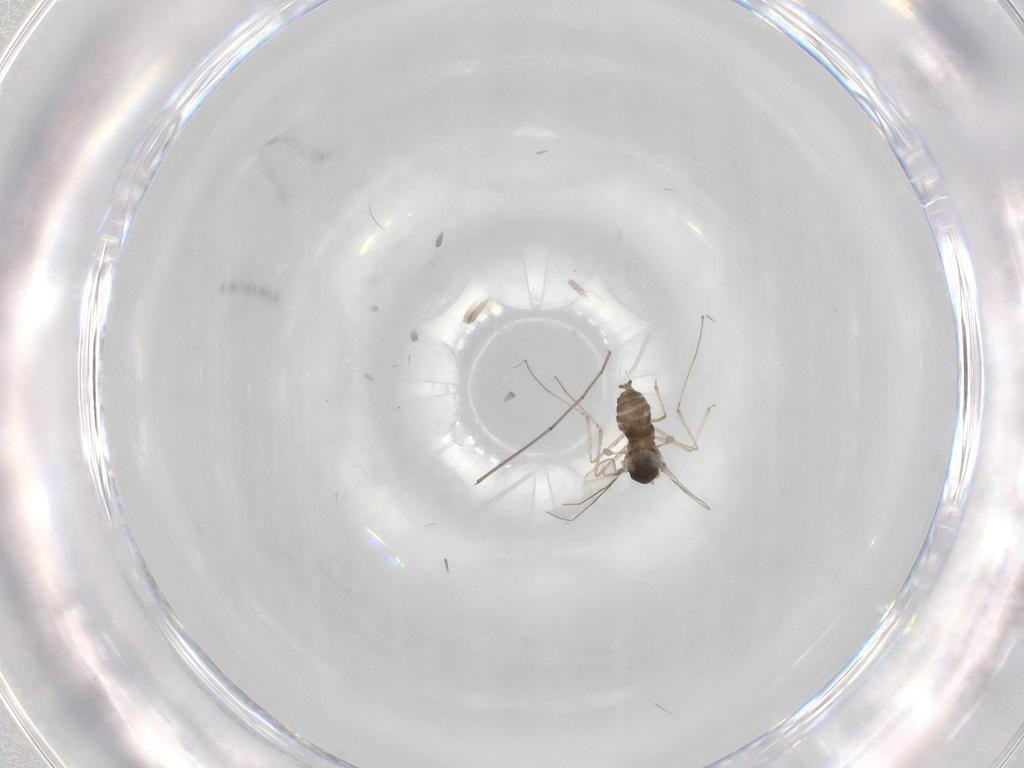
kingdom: Animalia
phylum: Arthropoda
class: Insecta
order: Diptera
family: Cecidomyiidae
